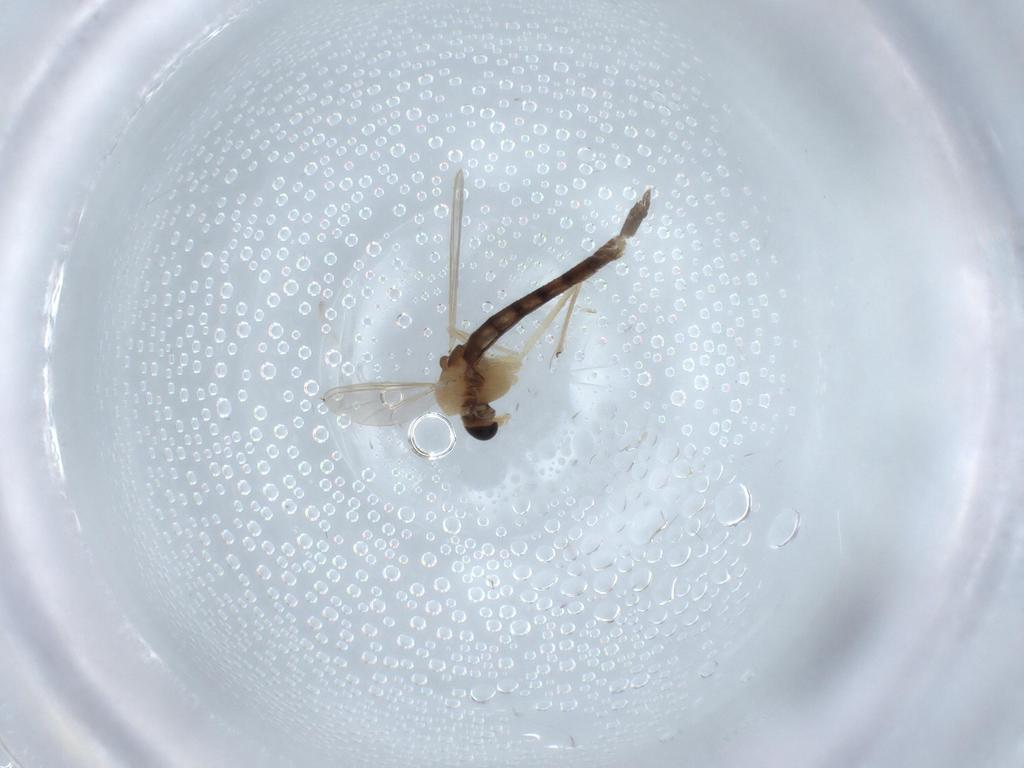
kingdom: Animalia
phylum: Arthropoda
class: Insecta
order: Diptera
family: Chironomidae
